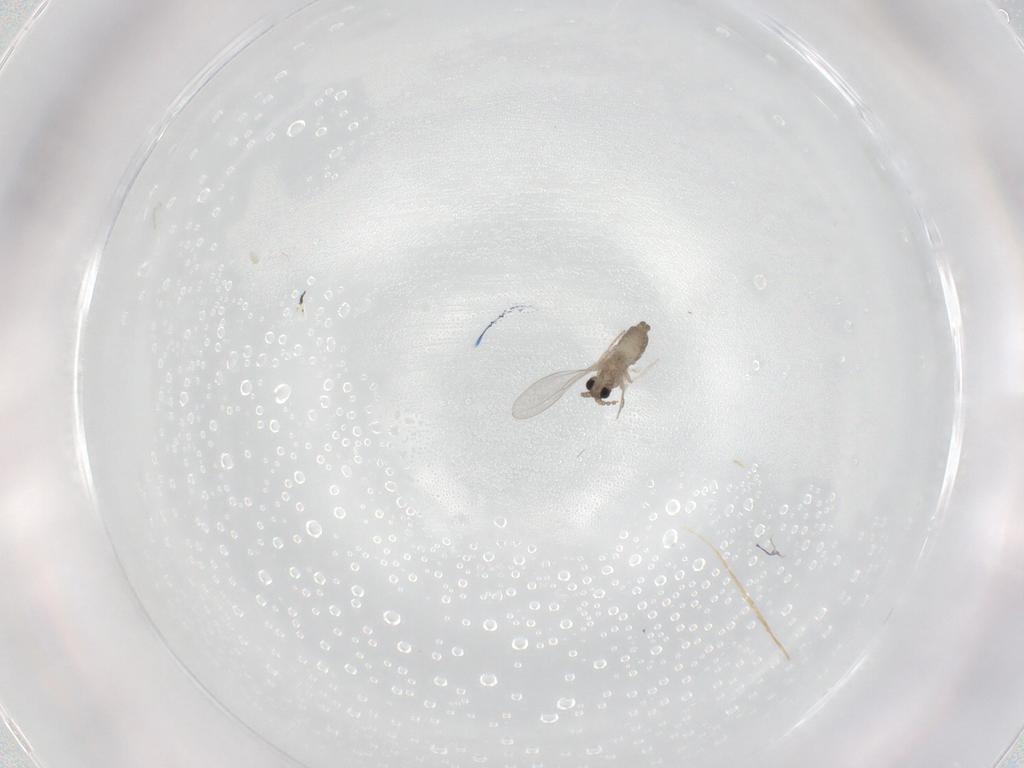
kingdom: Animalia
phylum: Arthropoda
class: Insecta
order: Diptera
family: Cecidomyiidae
